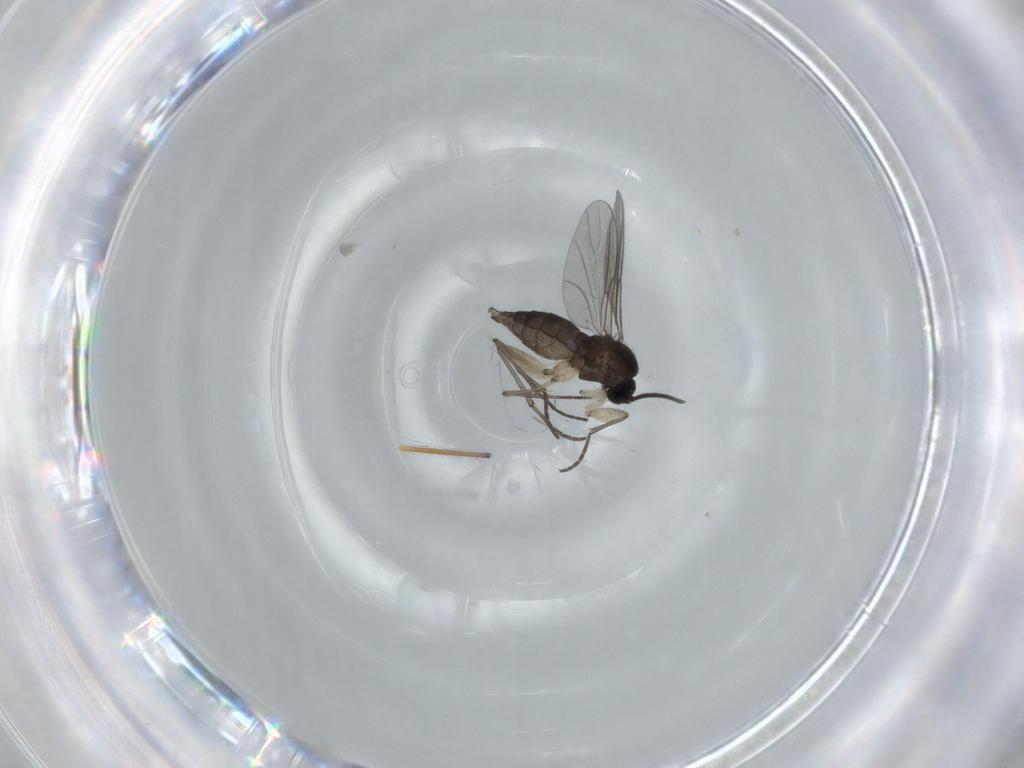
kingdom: Animalia
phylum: Arthropoda
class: Insecta
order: Diptera
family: Sciaridae
